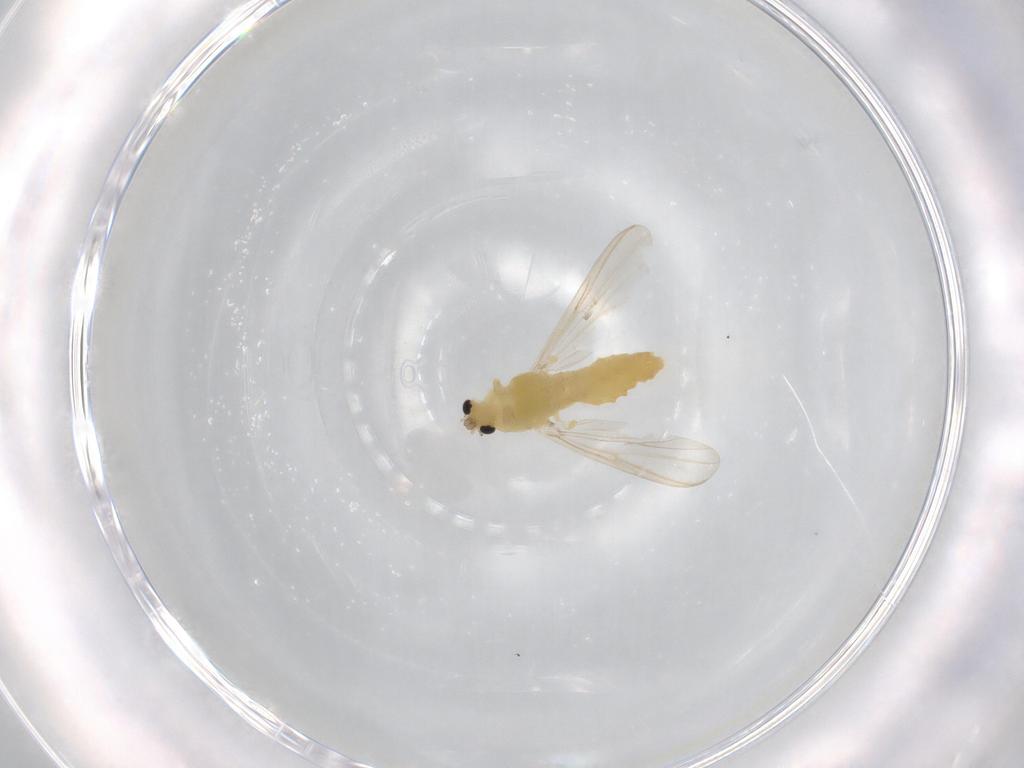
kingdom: Animalia
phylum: Arthropoda
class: Insecta
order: Diptera
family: Chironomidae
